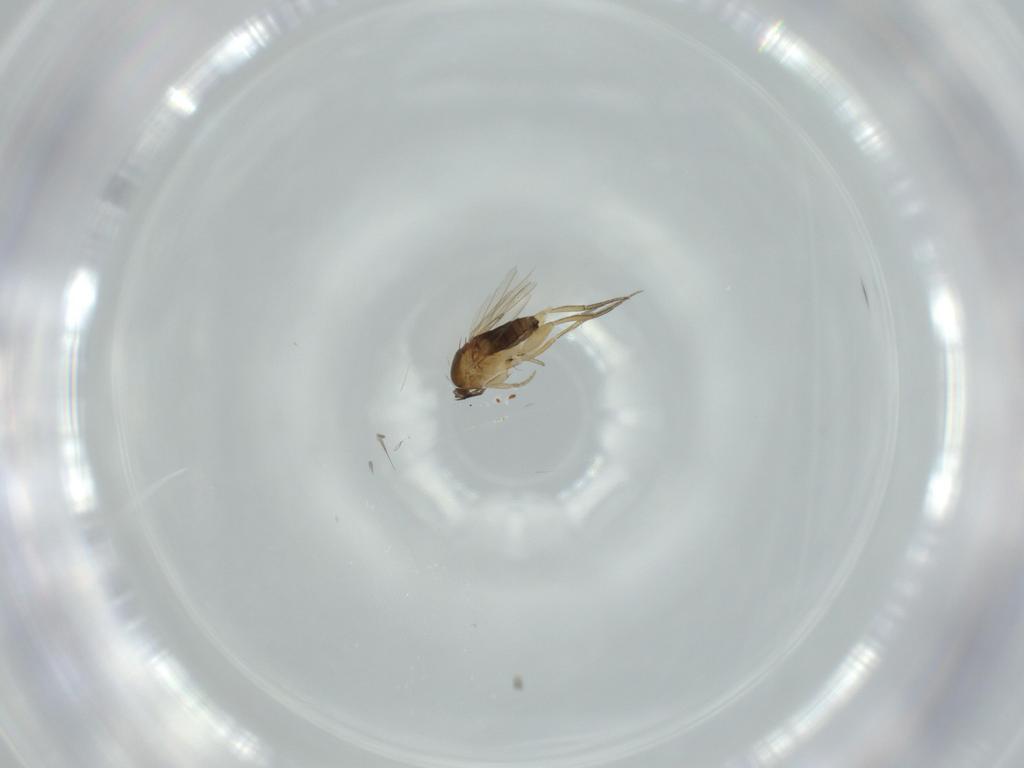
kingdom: Animalia
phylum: Arthropoda
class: Insecta
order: Diptera
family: Phoridae
